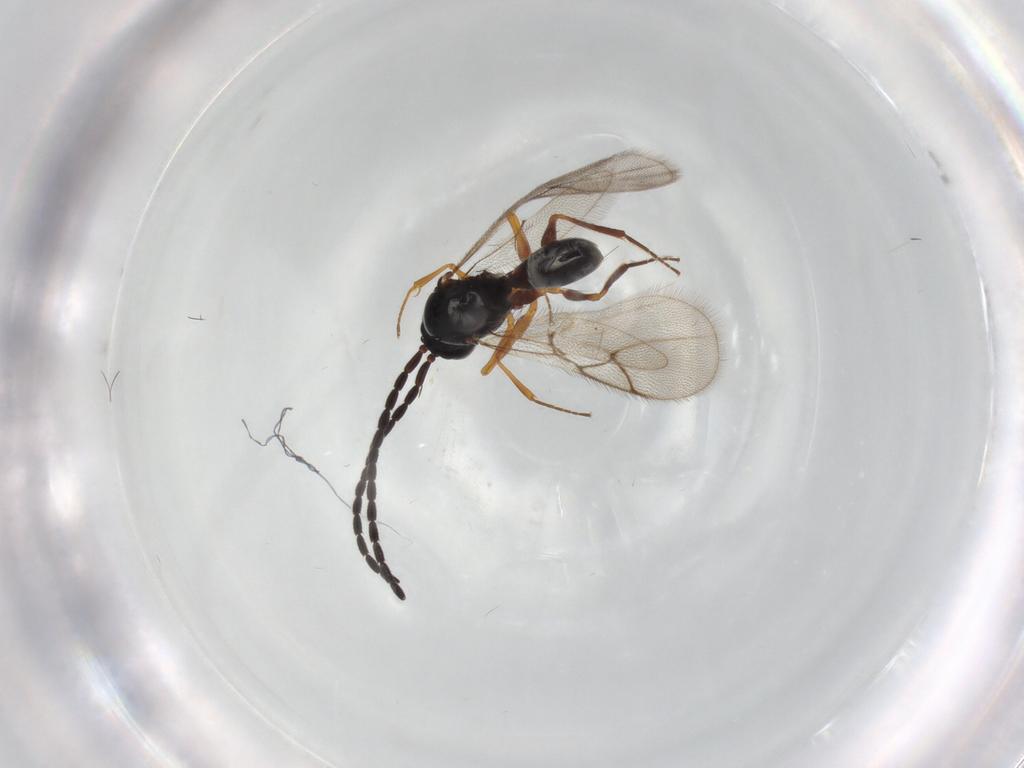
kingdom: Animalia
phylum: Arthropoda
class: Insecta
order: Hymenoptera
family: Figitidae
